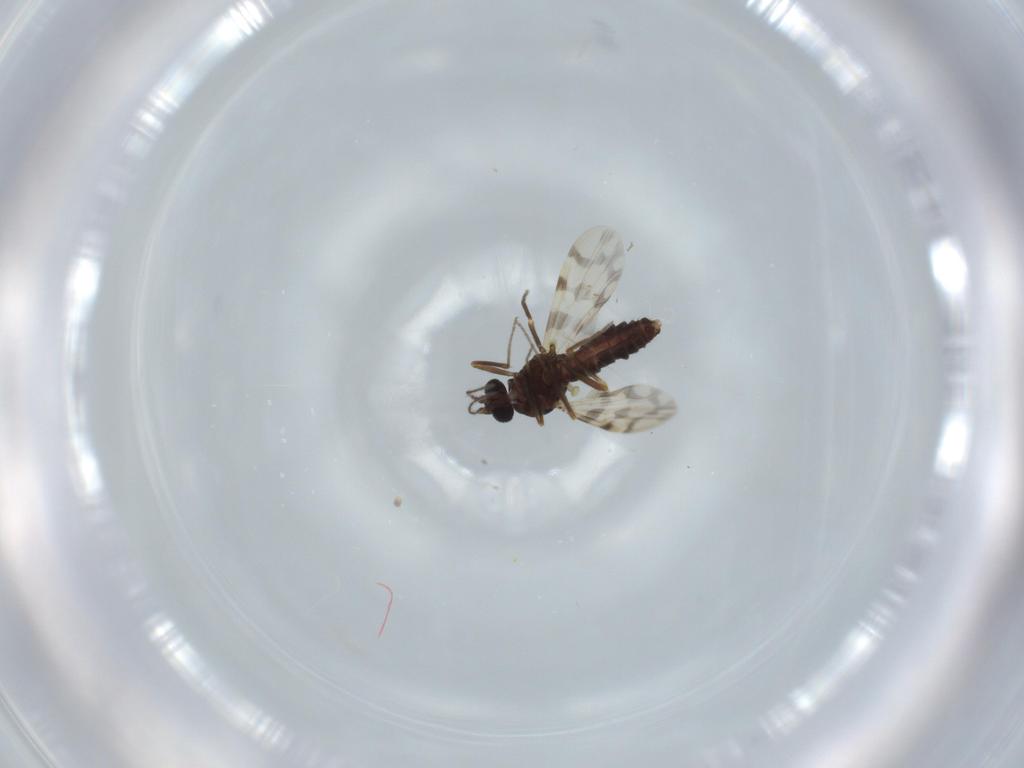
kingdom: Animalia
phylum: Arthropoda
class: Insecta
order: Diptera
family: Cecidomyiidae
